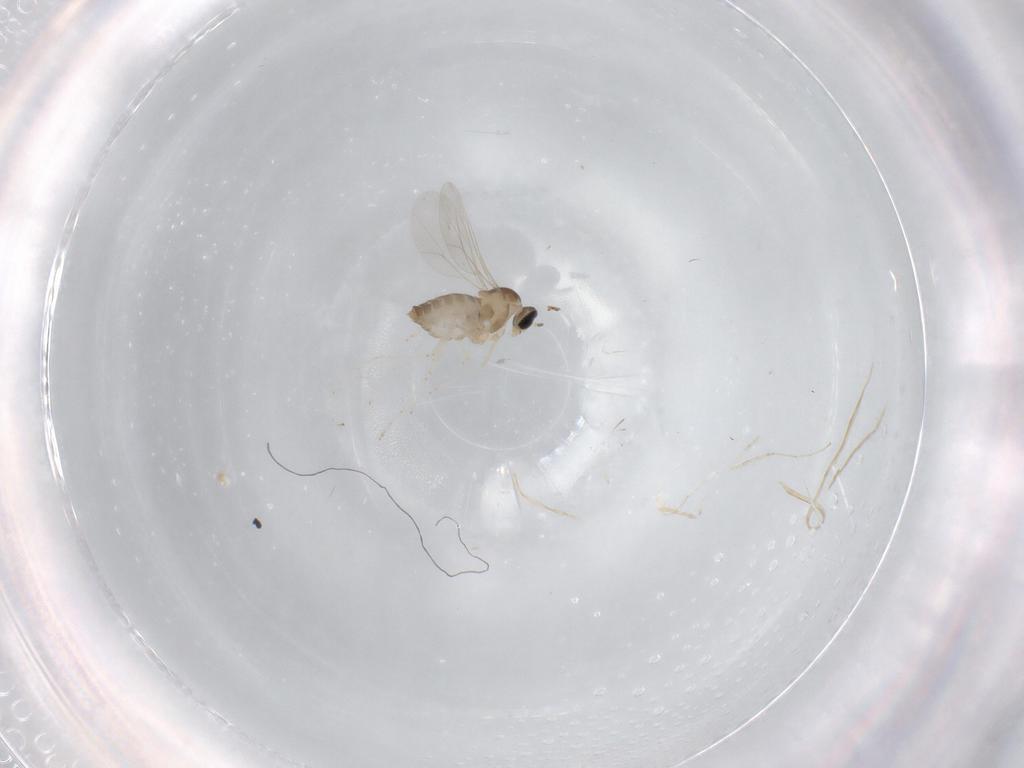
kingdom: Animalia
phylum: Arthropoda
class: Insecta
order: Diptera
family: Cecidomyiidae
